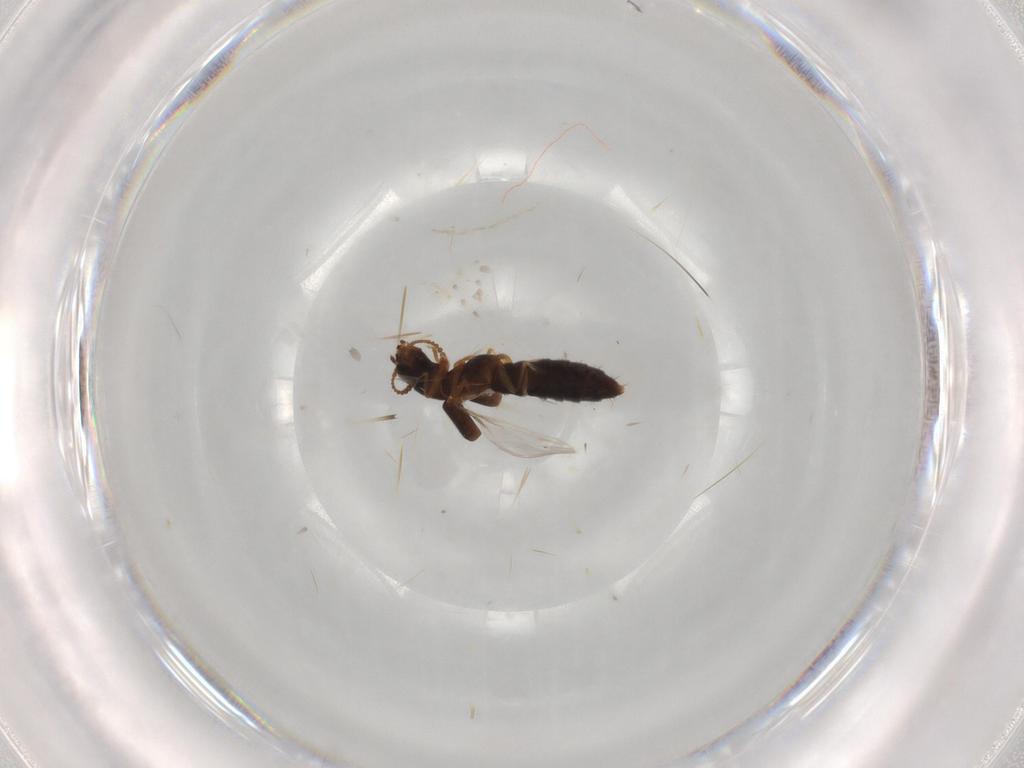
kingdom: Animalia
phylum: Arthropoda
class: Insecta
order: Coleoptera
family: Staphylinidae
